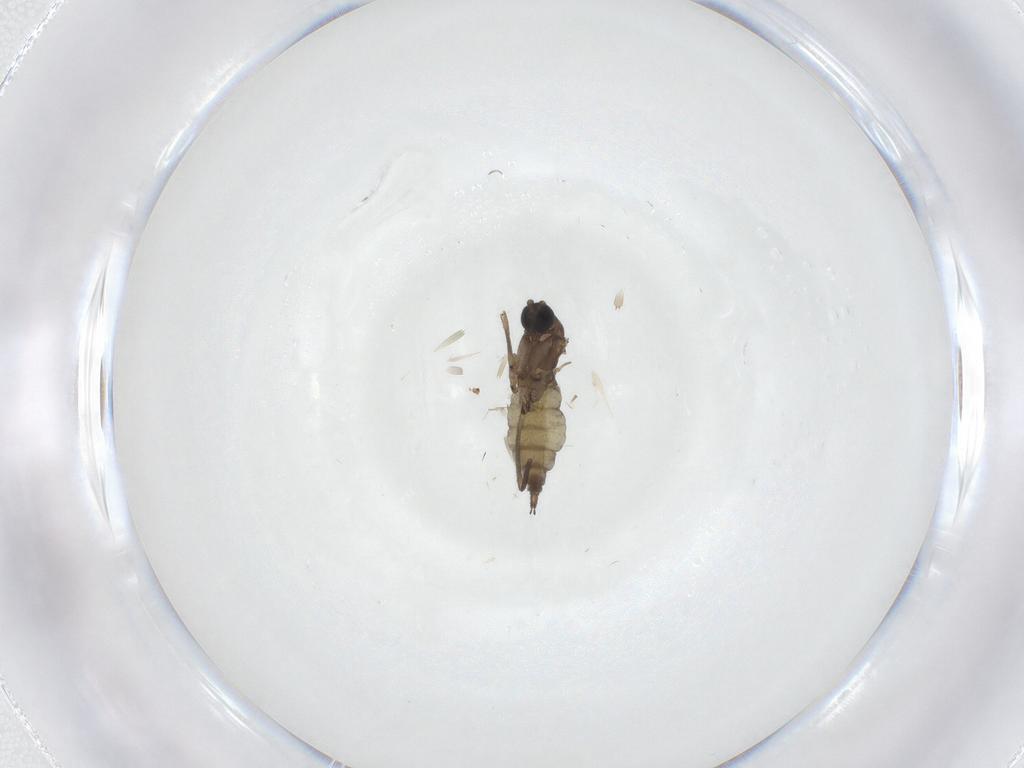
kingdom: Animalia
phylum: Arthropoda
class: Insecta
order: Diptera
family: Sciaridae
